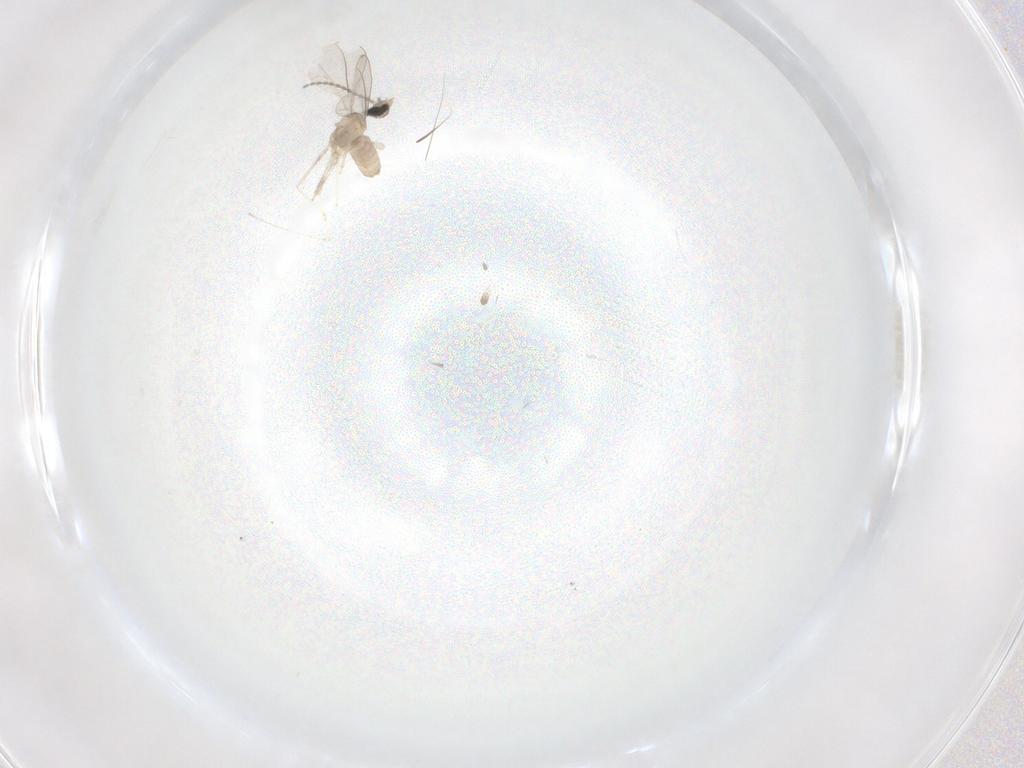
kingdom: Animalia
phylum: Arthropoda
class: Insecta
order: Diptera
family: Cecidomyiidae
